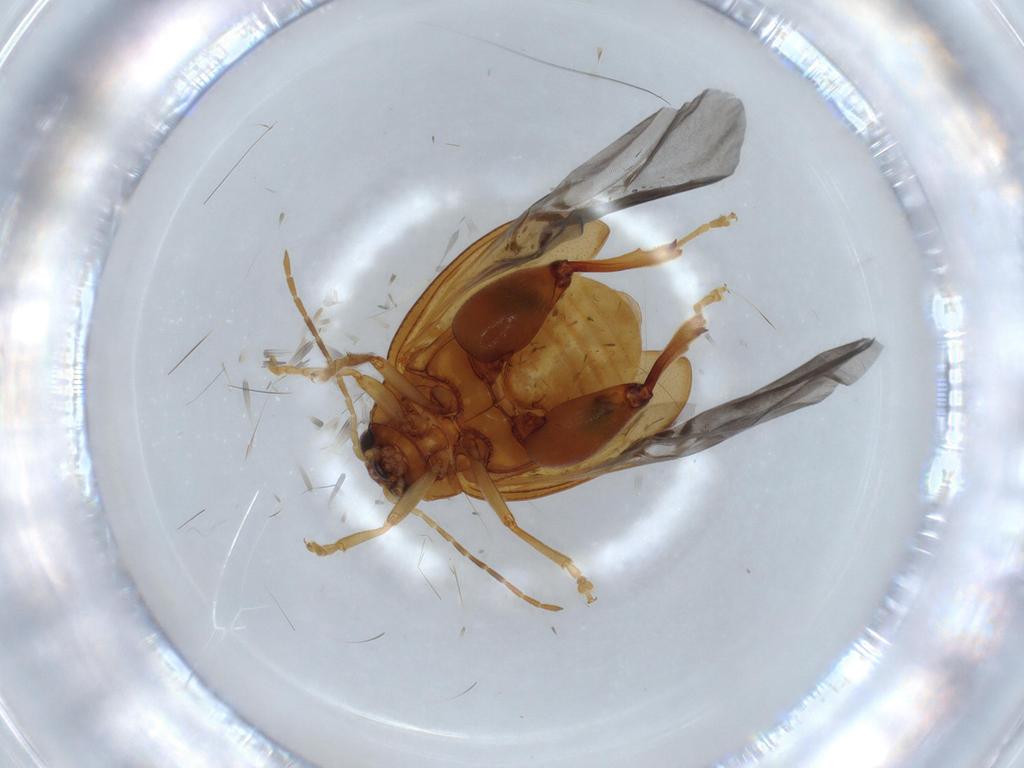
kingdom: Animalia
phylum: Arthropoda
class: Insecta
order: Coleoptera
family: Chrysomelidae
